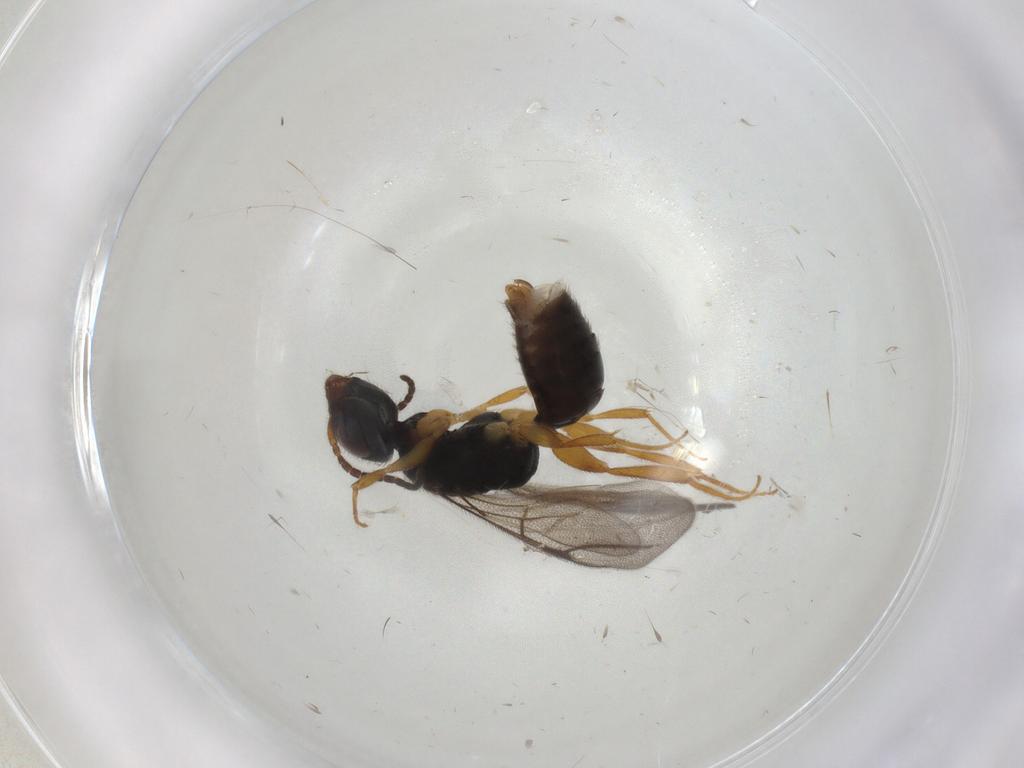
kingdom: Animalia
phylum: Arthropoda
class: Insecta
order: Hymenoptera
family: Bethylidae
